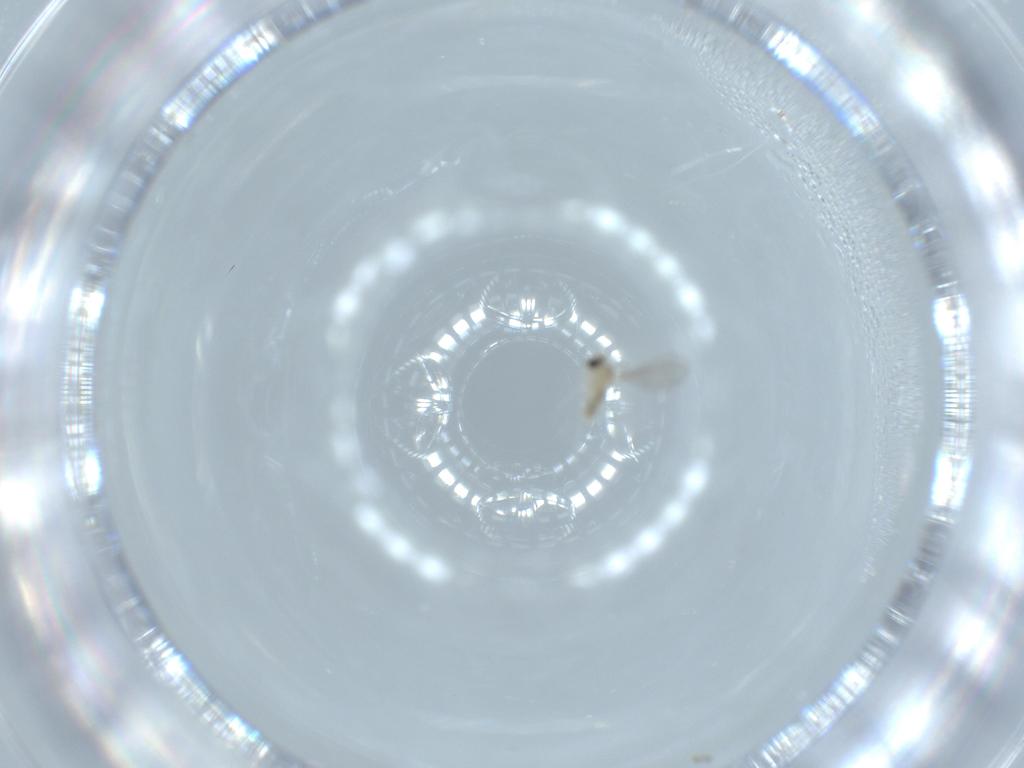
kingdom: Animalia
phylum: Arthropoda
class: Insecta
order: Diptera
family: Cecidomyiidae
